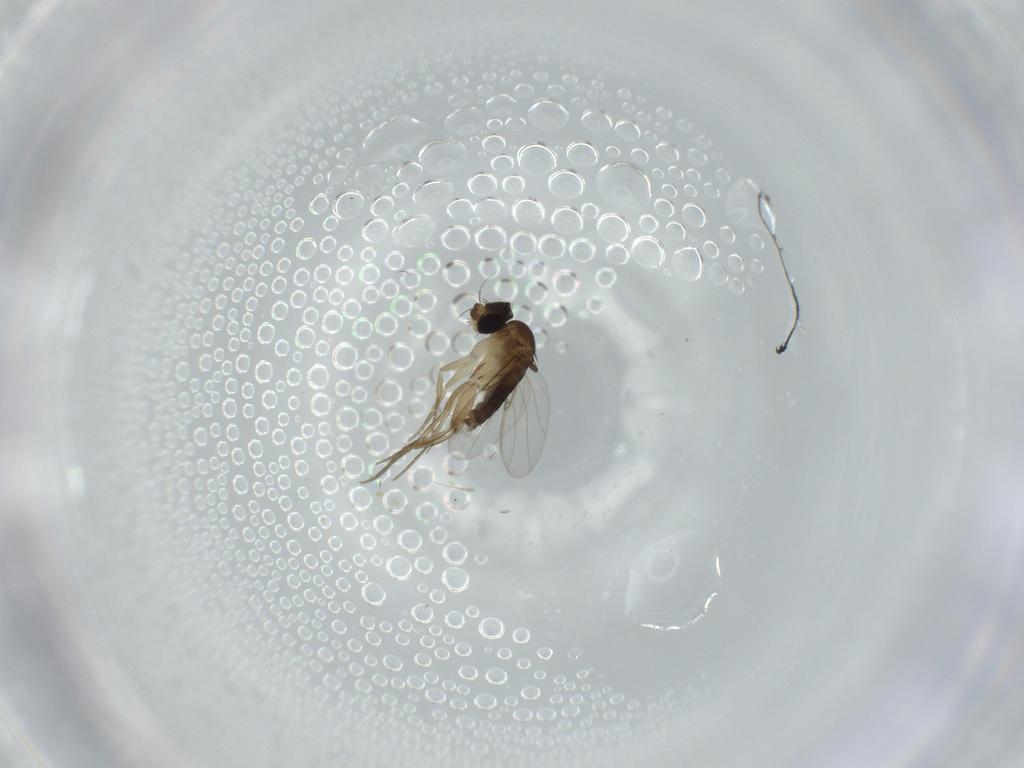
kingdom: Animalia
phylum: Arthropoda
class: Insecta
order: Diptera
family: Phoridae
